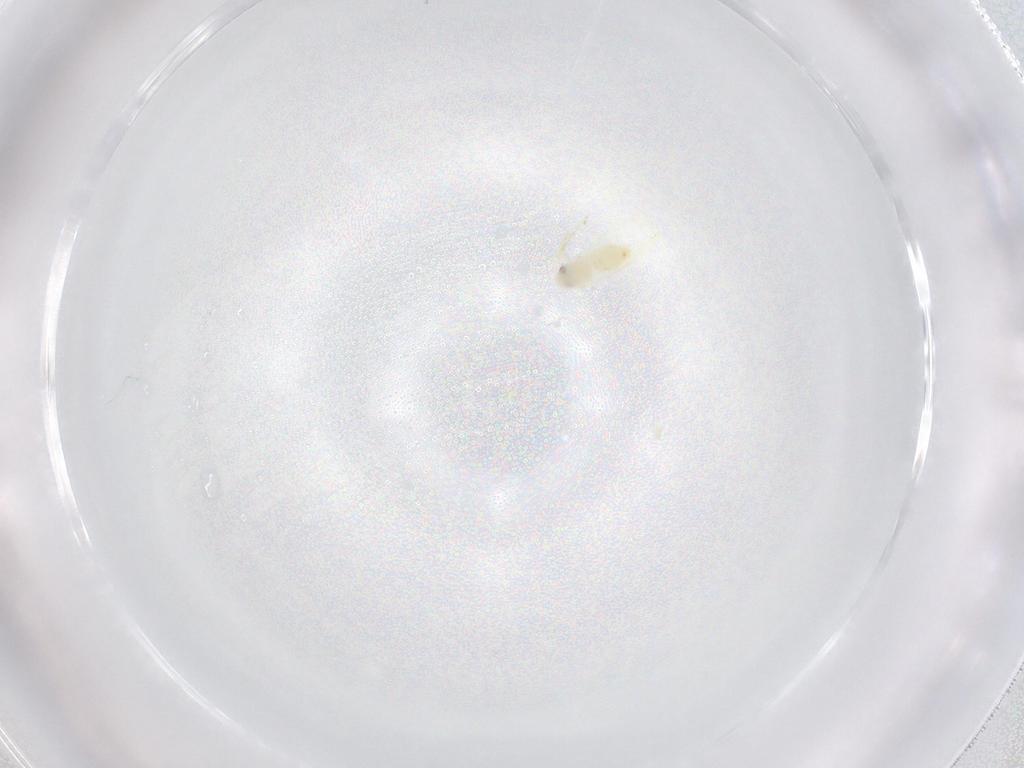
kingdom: Animalia
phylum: Arthropoda
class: Insecta
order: Hemiptera
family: Aleyrodidae
